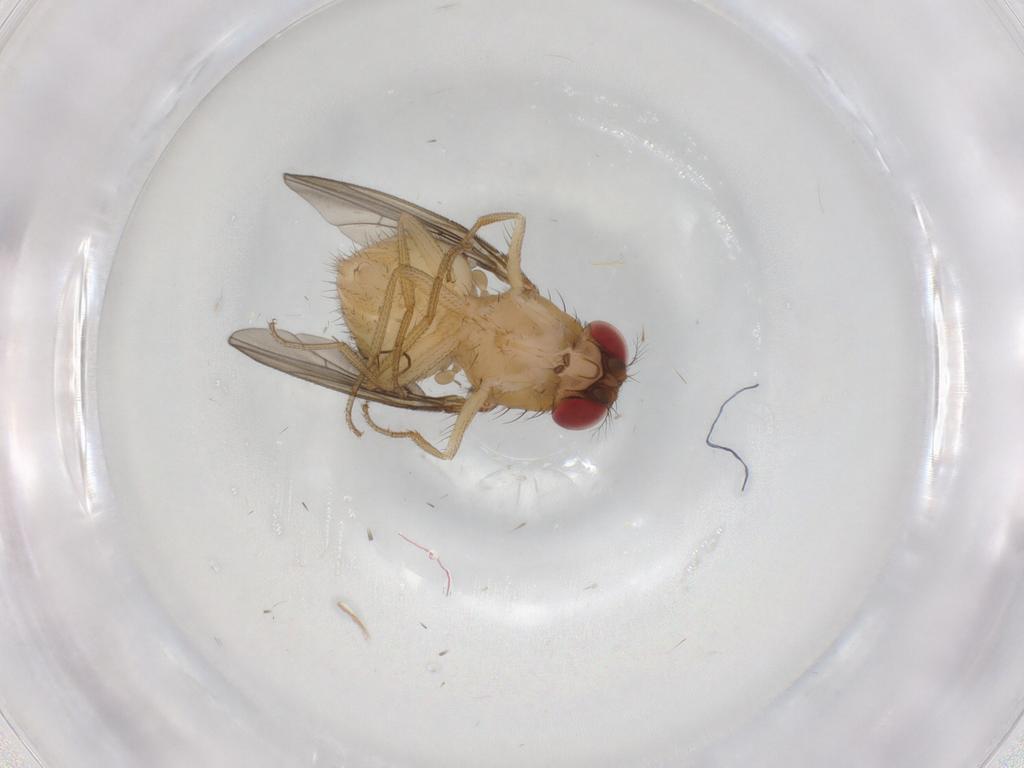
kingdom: Animalia
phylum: Arthropoda
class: Insecta
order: Diptera
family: Drosophilidae
